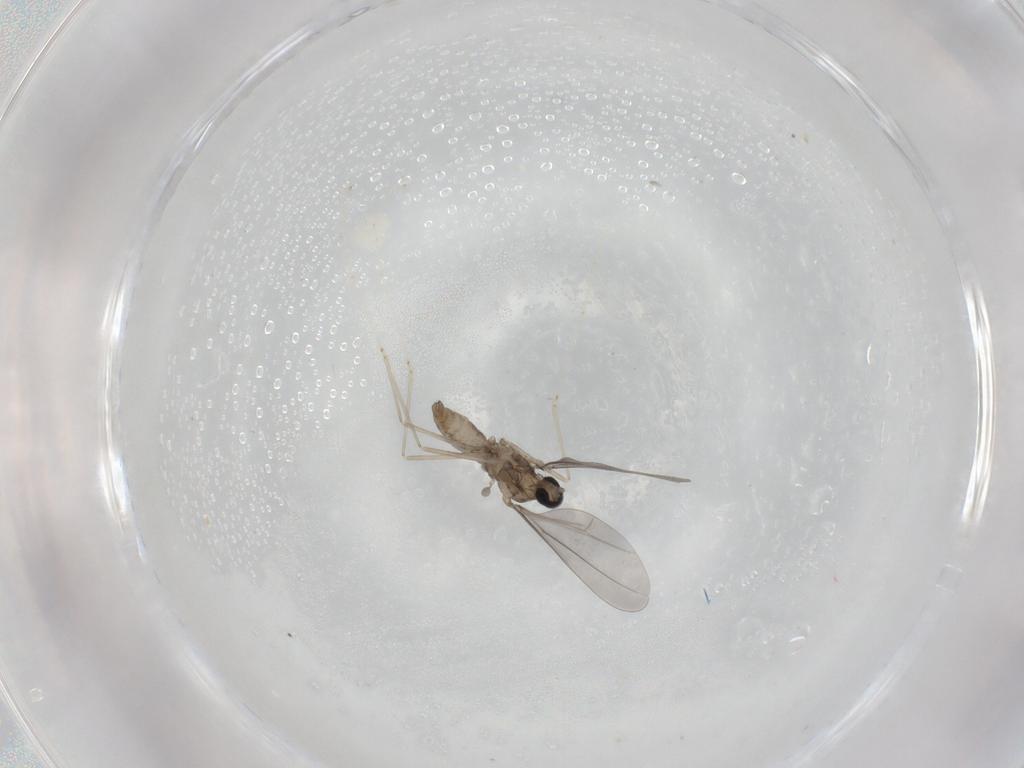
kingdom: Animalia
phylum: Arthropoda
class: Insecta
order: Diptera
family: Cecidomyiidae
